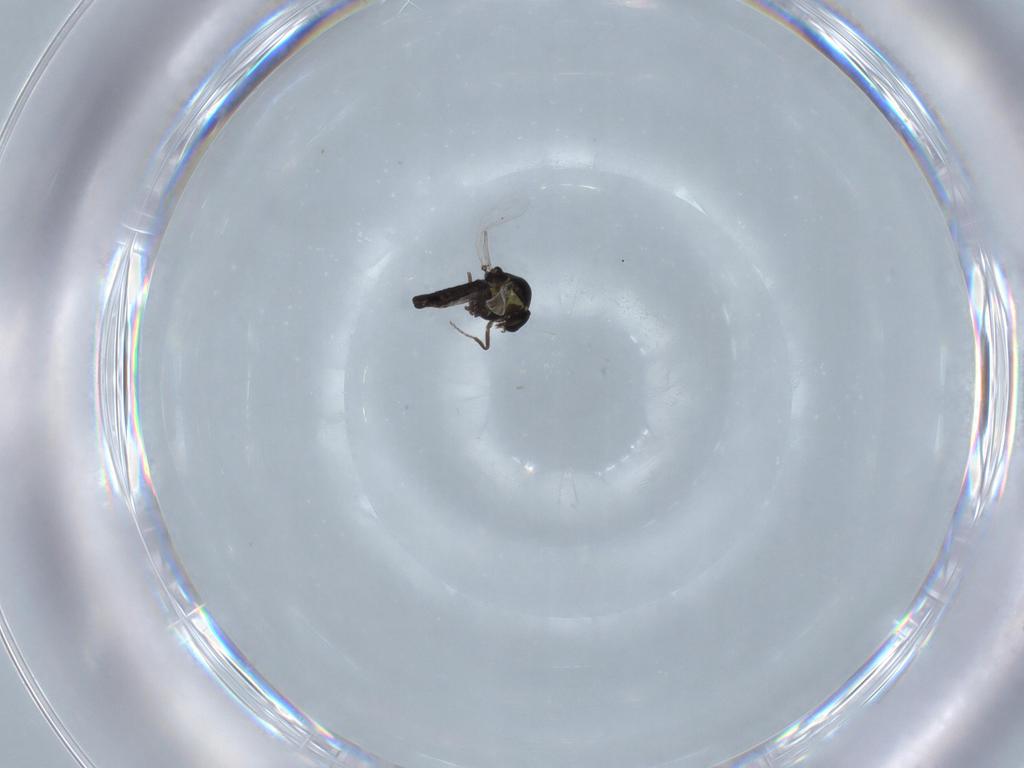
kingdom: Animalia
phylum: Arthropoda
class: Insecta
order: Diptera
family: Ceratopogonidae
